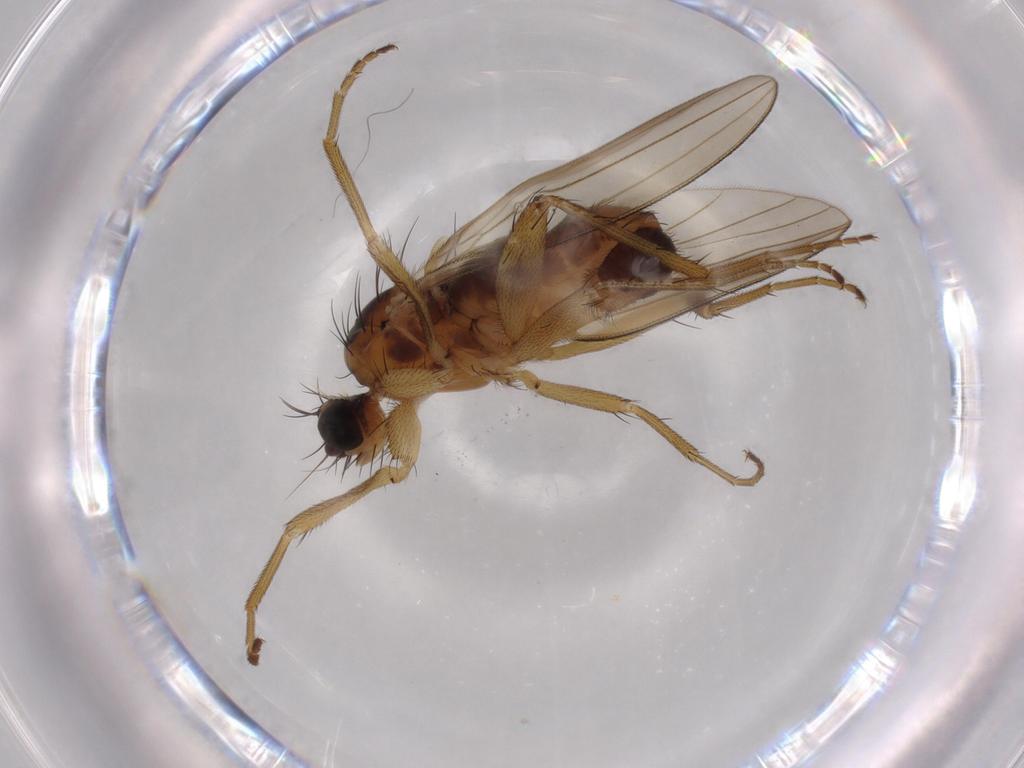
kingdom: Animalia
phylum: Arthropoda
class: Insecta
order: Diptera
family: Lonchopteridae
